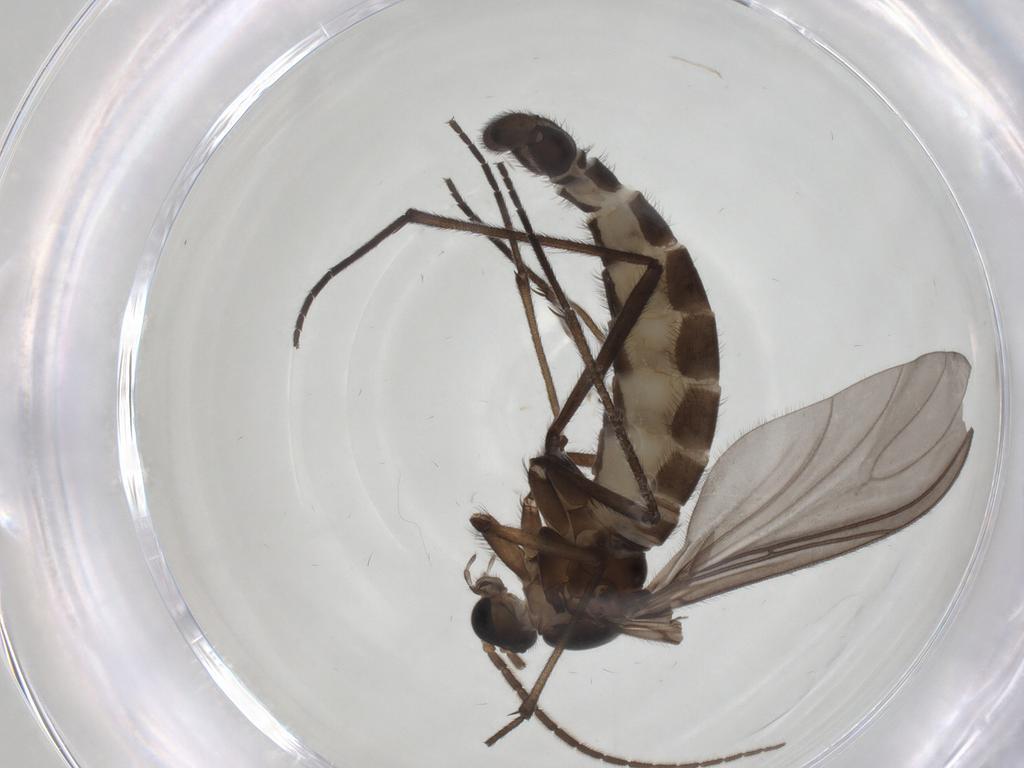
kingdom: Animalia
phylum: Arthropoda
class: Insecta
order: Diptera
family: Sciaridae
